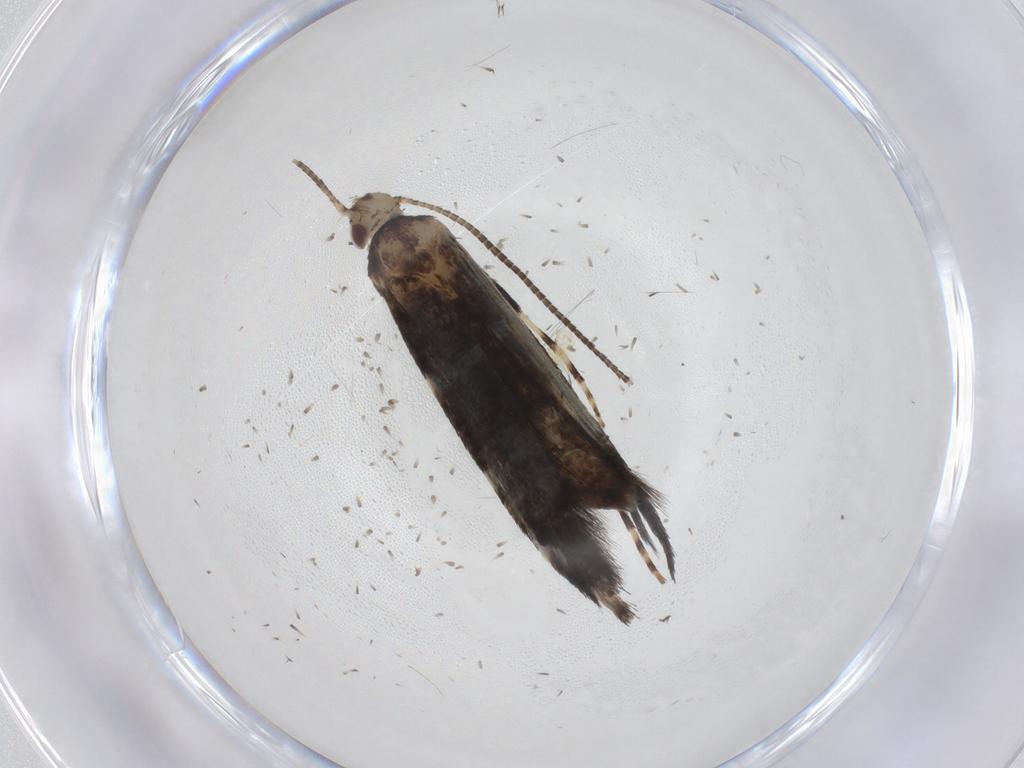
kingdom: Animalia
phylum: Arthropoda
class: Insecta
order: Lepidoptera
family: Gracillariidae
